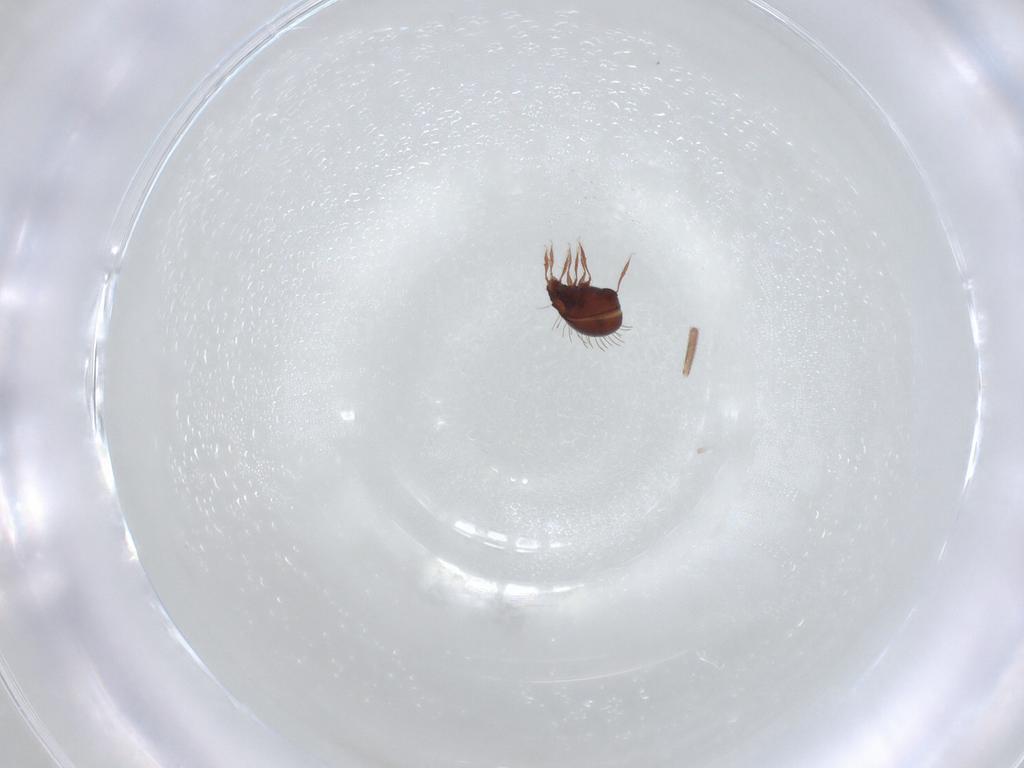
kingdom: Animalia
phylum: Arthropoda
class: Arachnida
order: Sarcoptiformes
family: Caloppiidae
